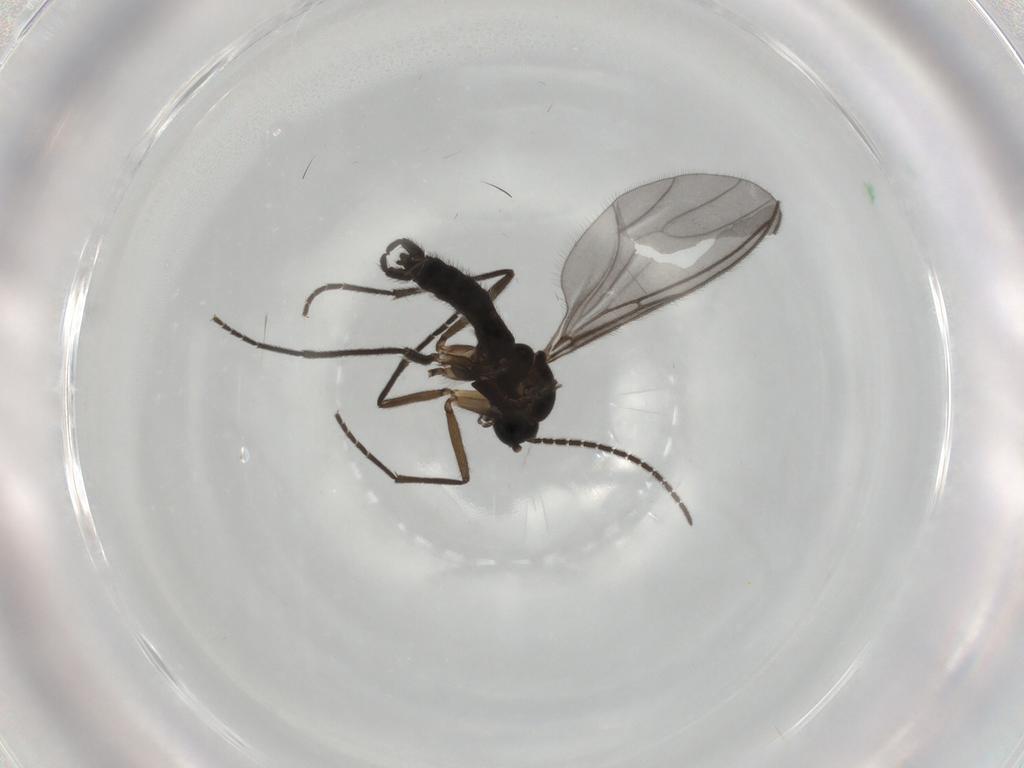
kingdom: Animalia
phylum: Arthropoda
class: Insecta
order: Diptera
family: Sciaridae
